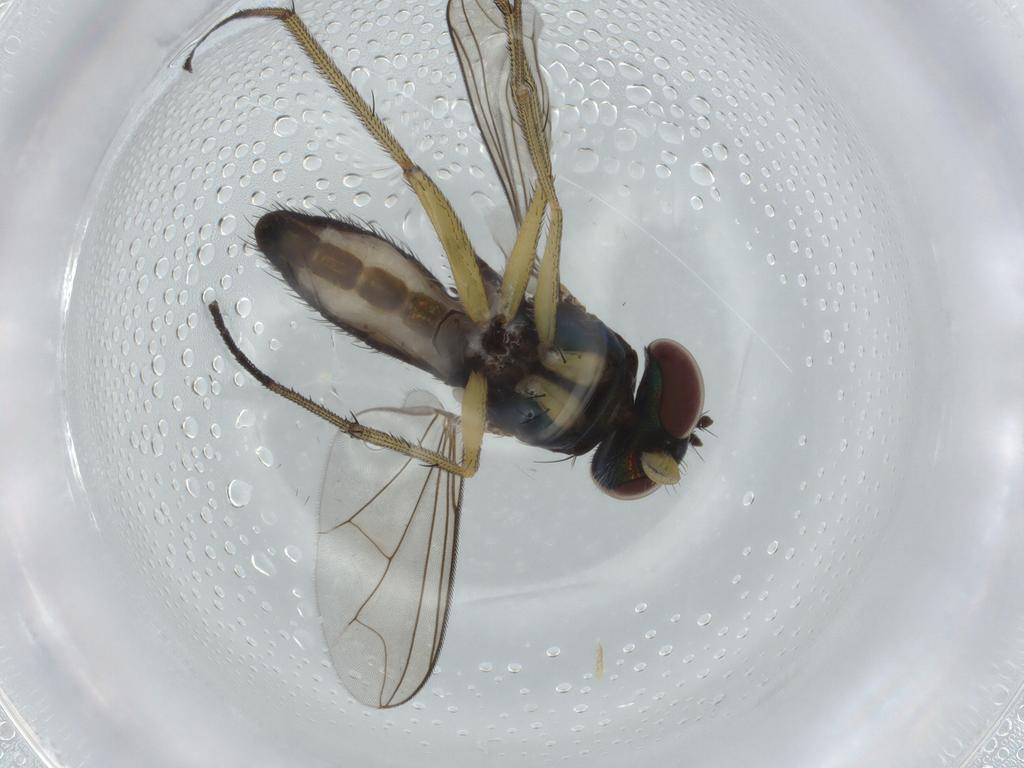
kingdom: Animalia
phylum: Arthropoda
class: Insecta
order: Diptera
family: Dolichopodidae
